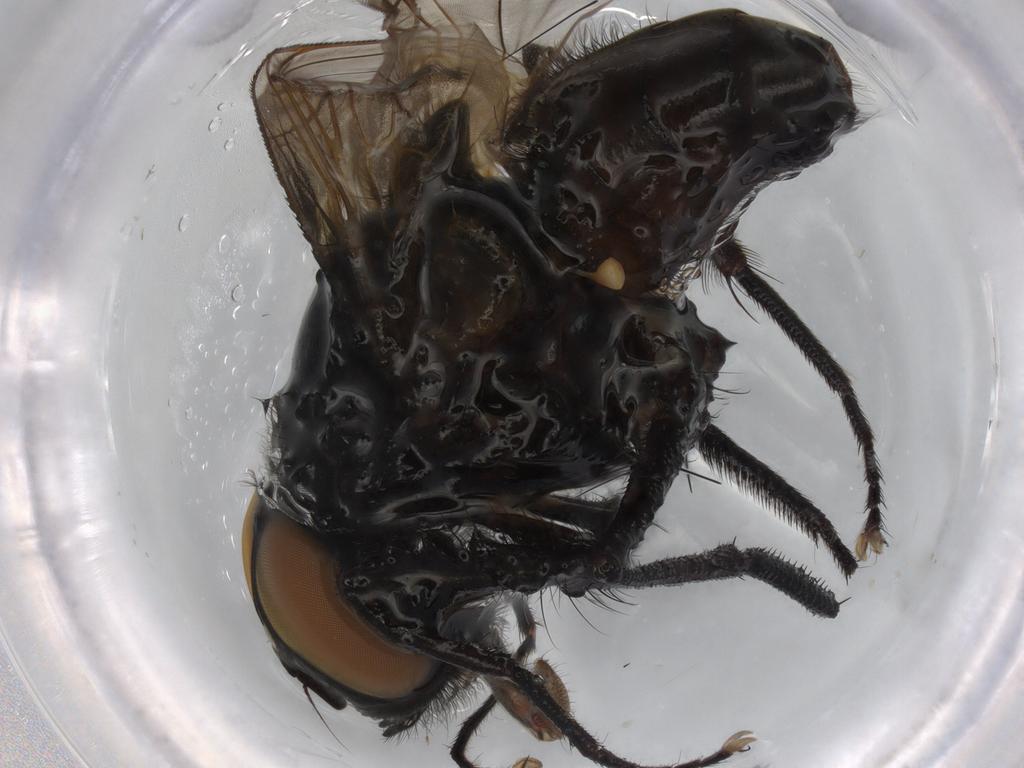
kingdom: Animalia
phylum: Arthropoda
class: Insecta
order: Diptera
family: Muscidae
